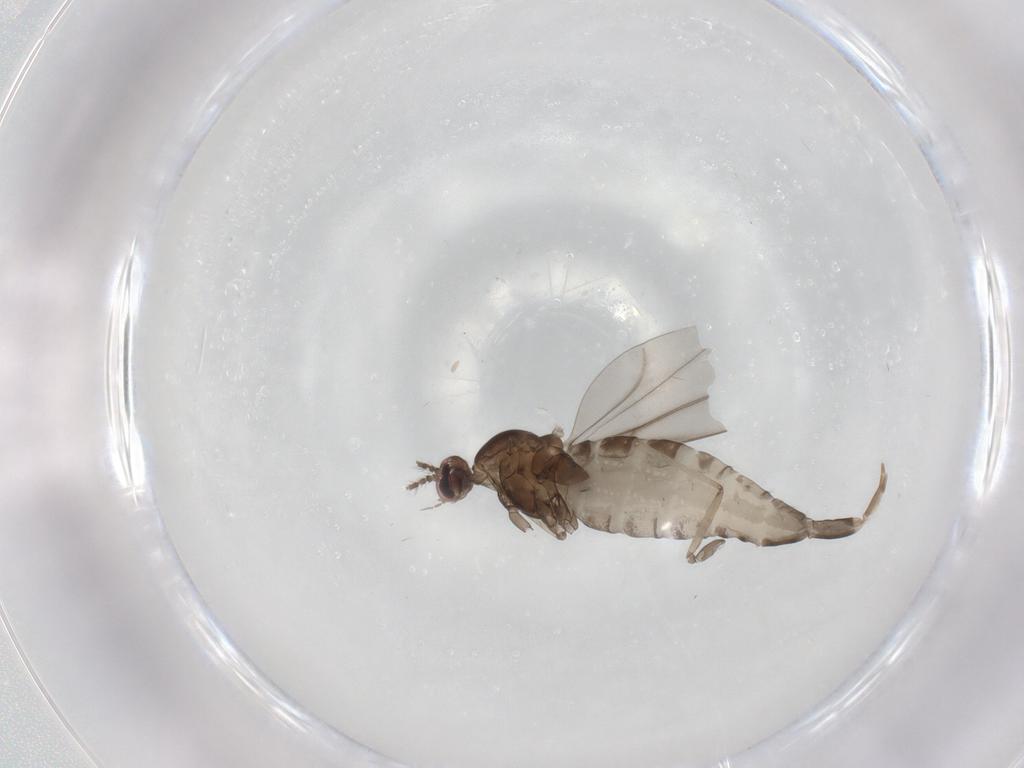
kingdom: Animalia
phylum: Arthropoda
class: Insecta
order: Diptera
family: Cecidomyiidae
